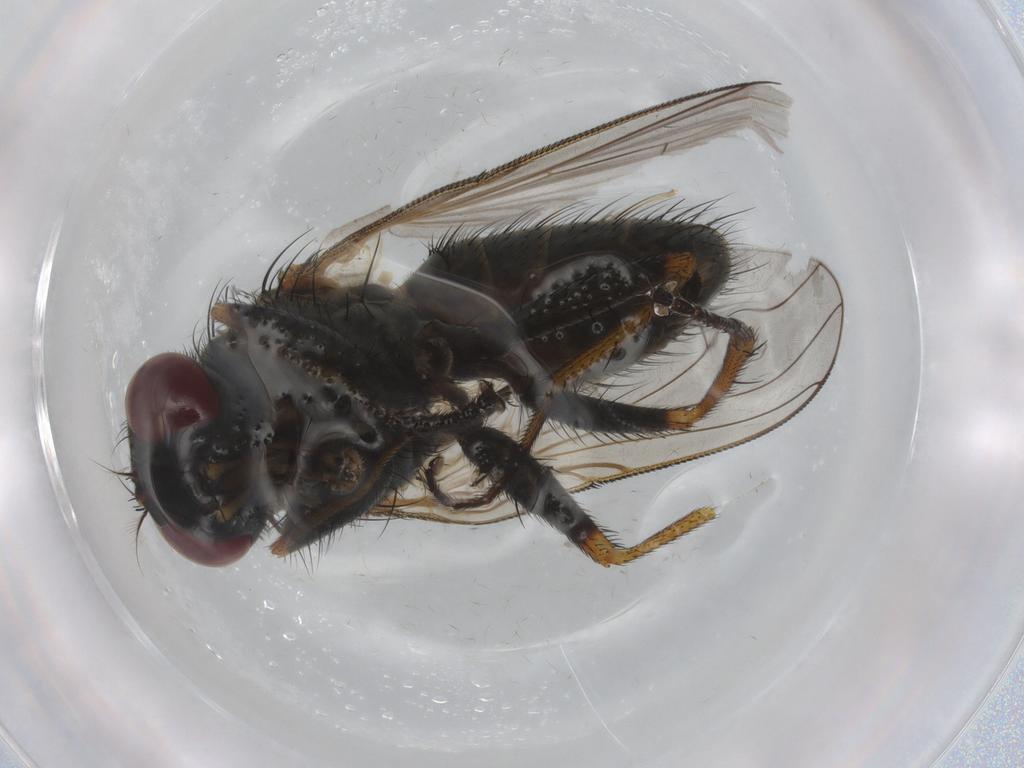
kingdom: Animalia
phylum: Arthropoda
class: Insecta
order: Diptera
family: Muscidae
